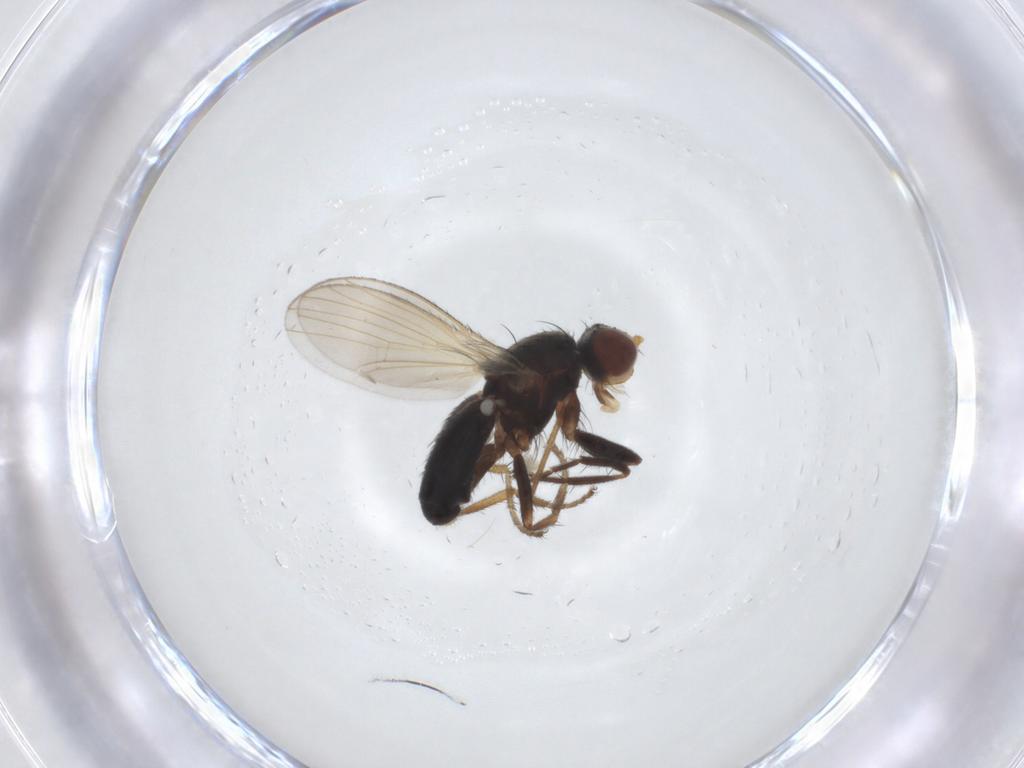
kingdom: Animalia
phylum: Arthropoda
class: Insecta
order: Diptera
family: Heleomyzidae
